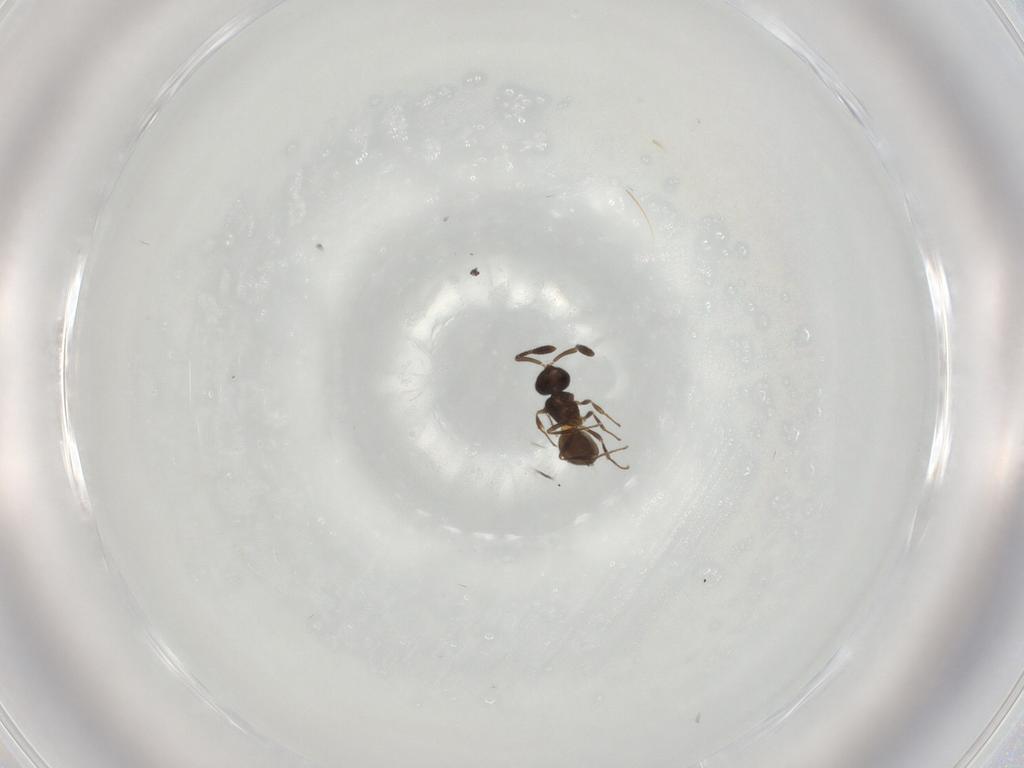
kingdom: Animalia
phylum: Arthropoda
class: Insecta
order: Hymenoptera
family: Scelionidae
